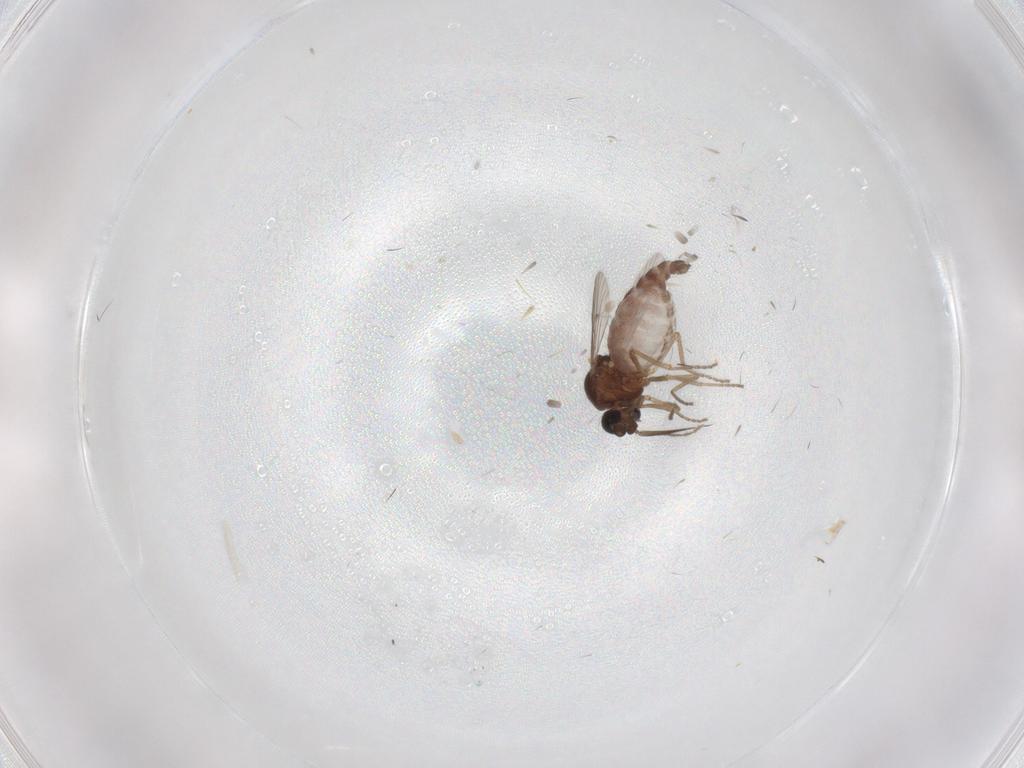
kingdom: Animalia
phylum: Arthropoda
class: Insecta
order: Diptera
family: Ceratopogonidae
